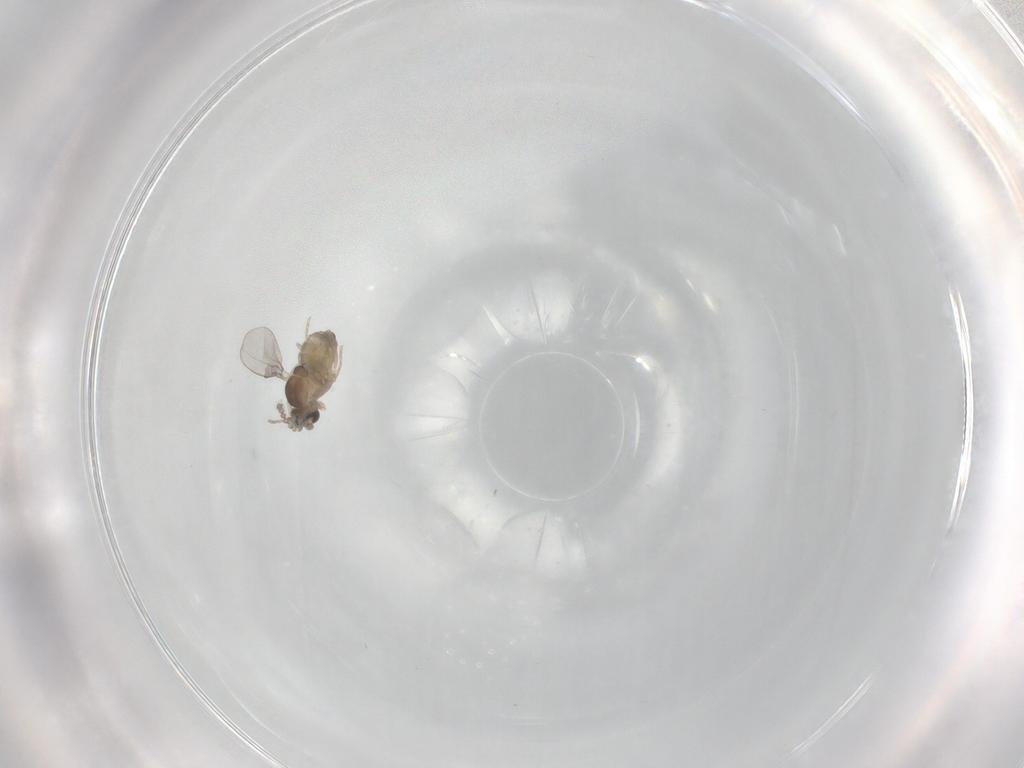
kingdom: Animalia
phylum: Arthropoda
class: Insecta
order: Diptera
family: Cecidomyiidae
